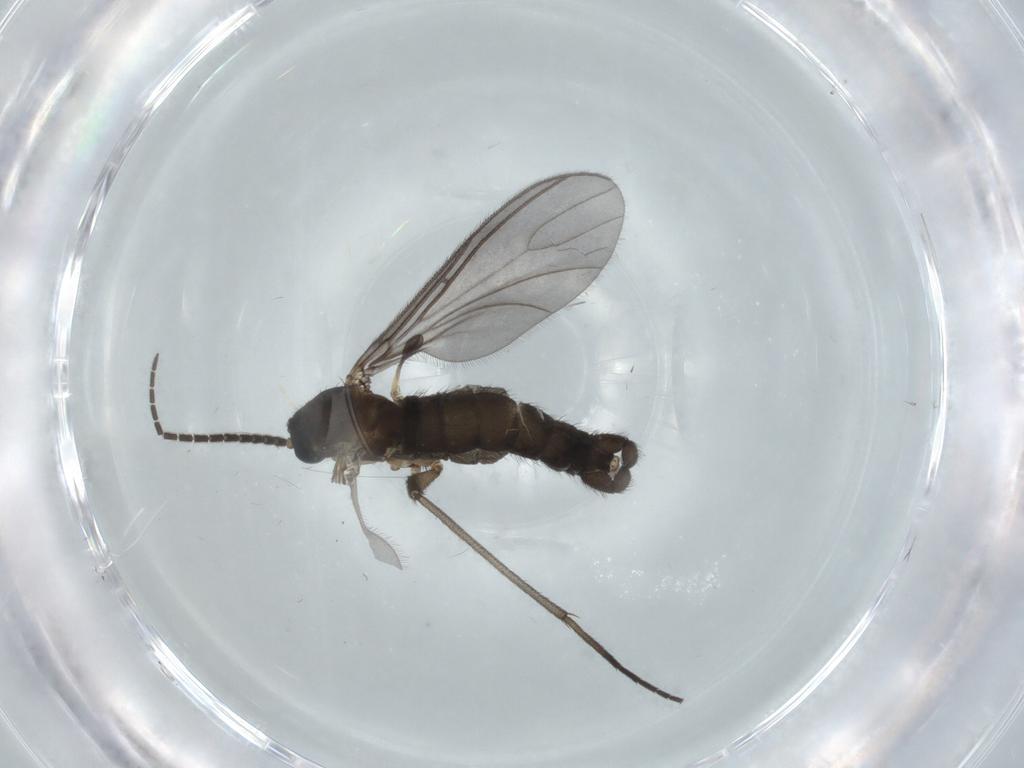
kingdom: Animalia
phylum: Arthropoda
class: Insecta
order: Diptera
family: Sciaridae
